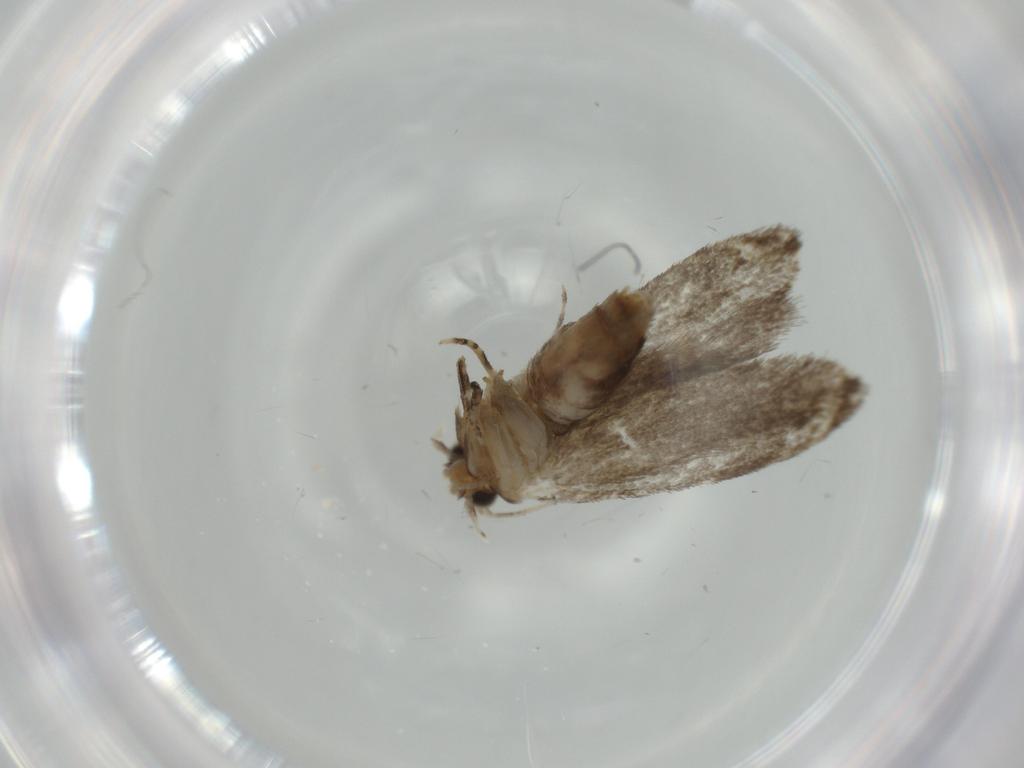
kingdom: Animalia
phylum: Arthropoda
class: Insecta
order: Lepidoptera
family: Tineidae
